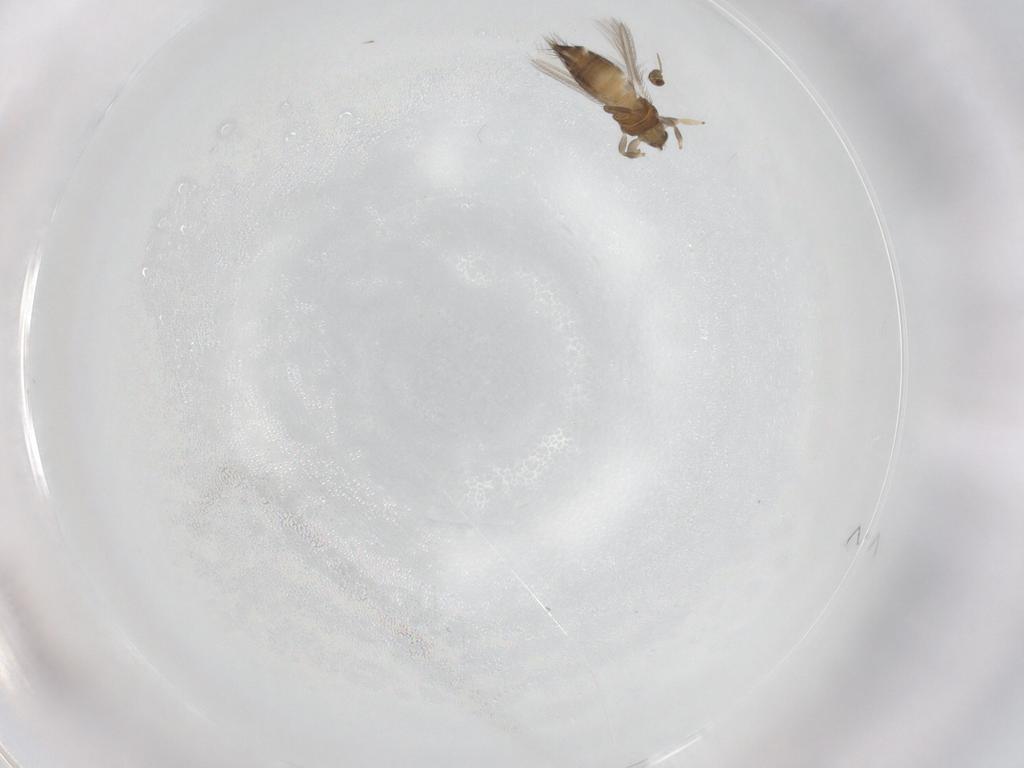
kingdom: Animalia
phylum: Arthropoda
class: Insecta
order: Thysanoptera
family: Thripidae
